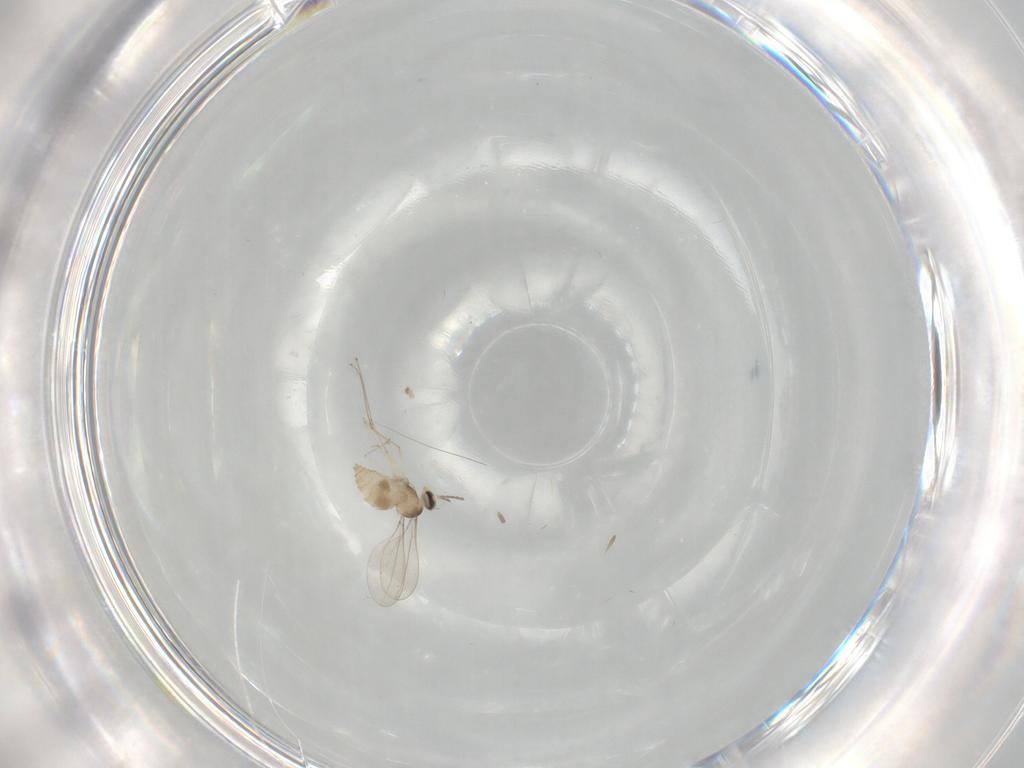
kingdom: Animalia
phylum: Arthropoda
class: Insecta
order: Diptera
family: Cecidomyiidae
